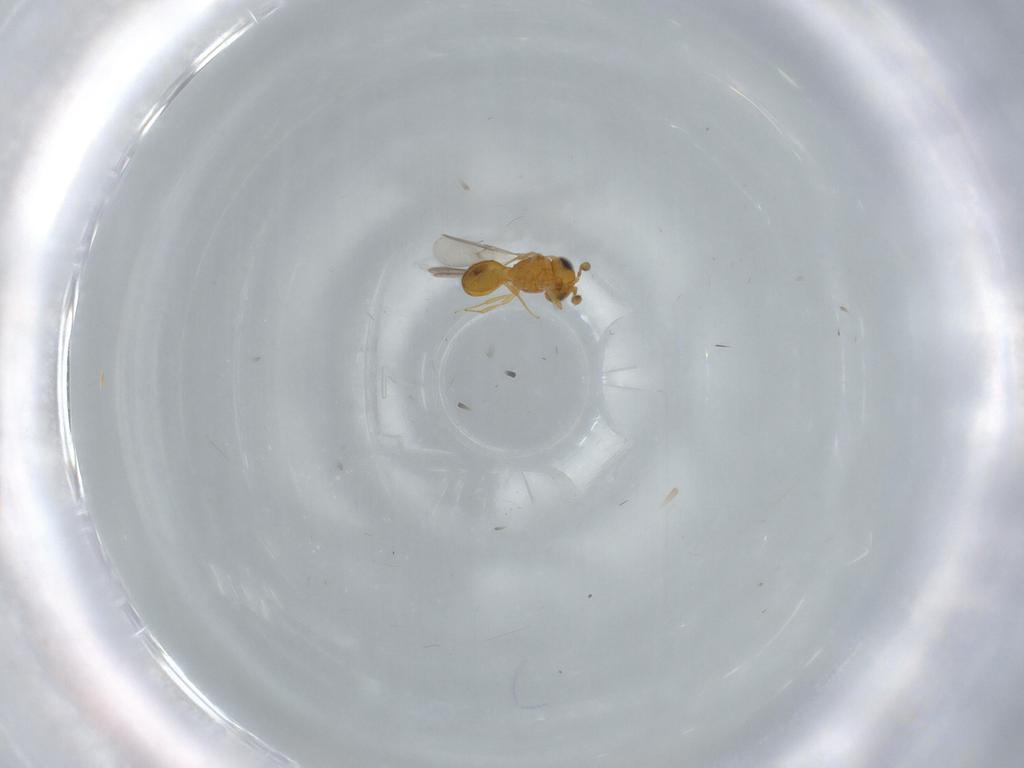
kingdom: Animalia
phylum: Arthropoda
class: Insecta
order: Hymenoptera
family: Scelionidae
